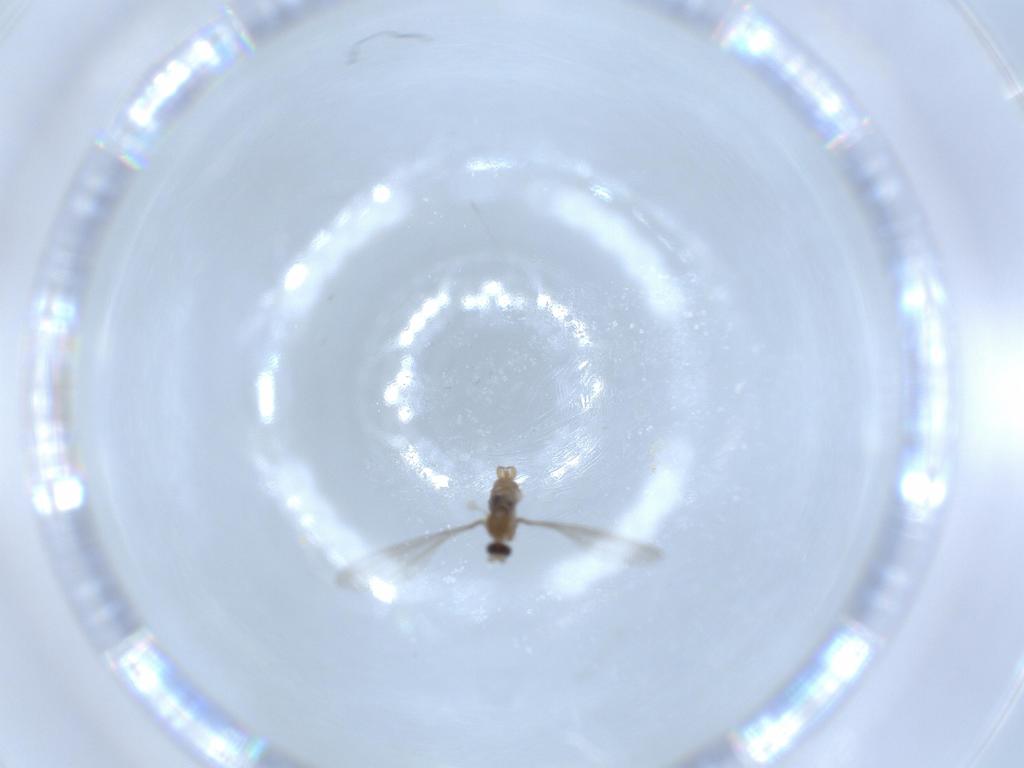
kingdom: Animalia
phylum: Arthropoda
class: Insecta
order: Diptera
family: Cecidomyiidae
